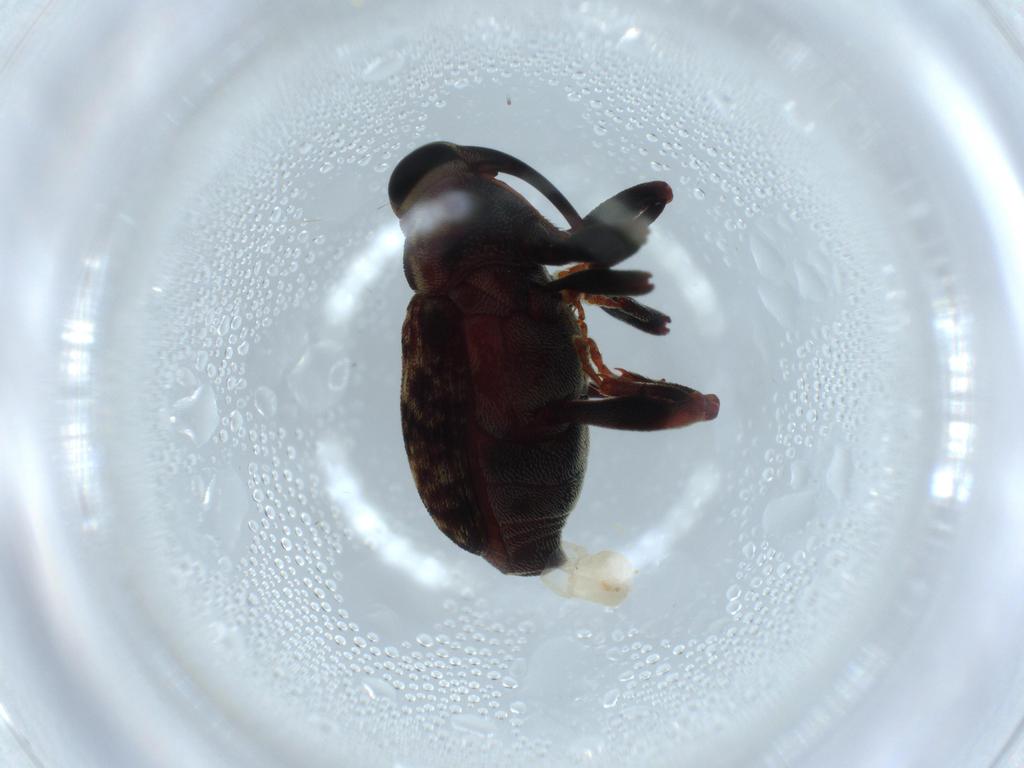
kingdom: Animalia
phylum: Arthropoda
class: Insecta
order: Coleoptera
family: Curculionidae
